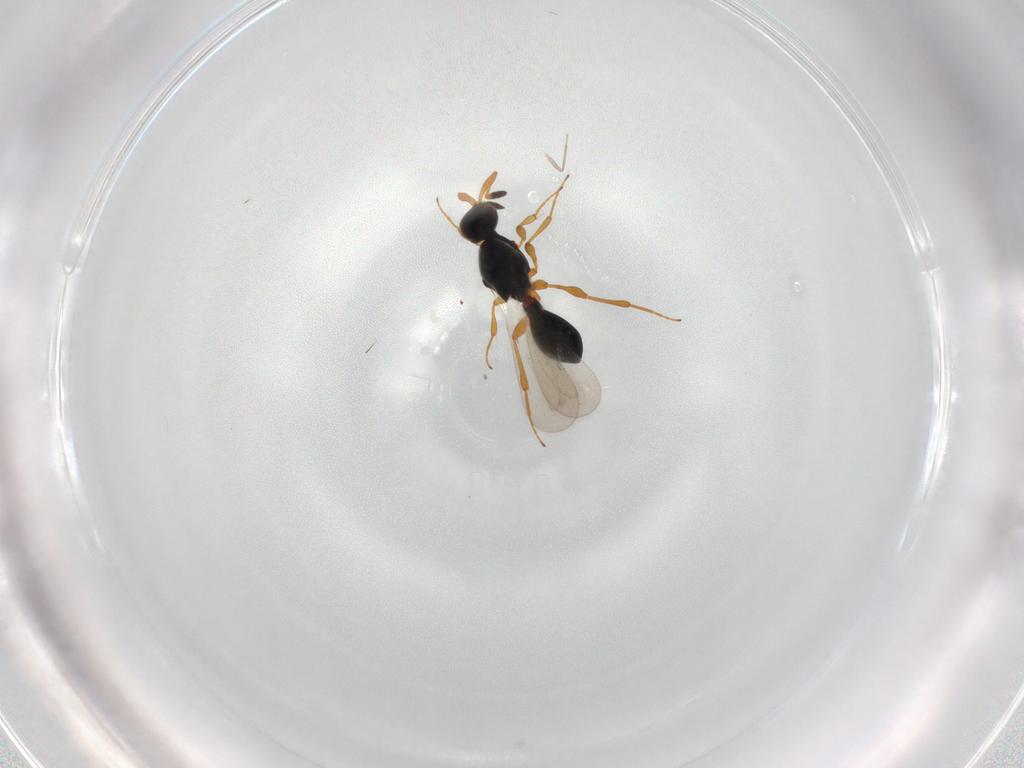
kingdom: Animalia
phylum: Arthropoda
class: Insecta
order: Hymenoptera
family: Platygastridae
